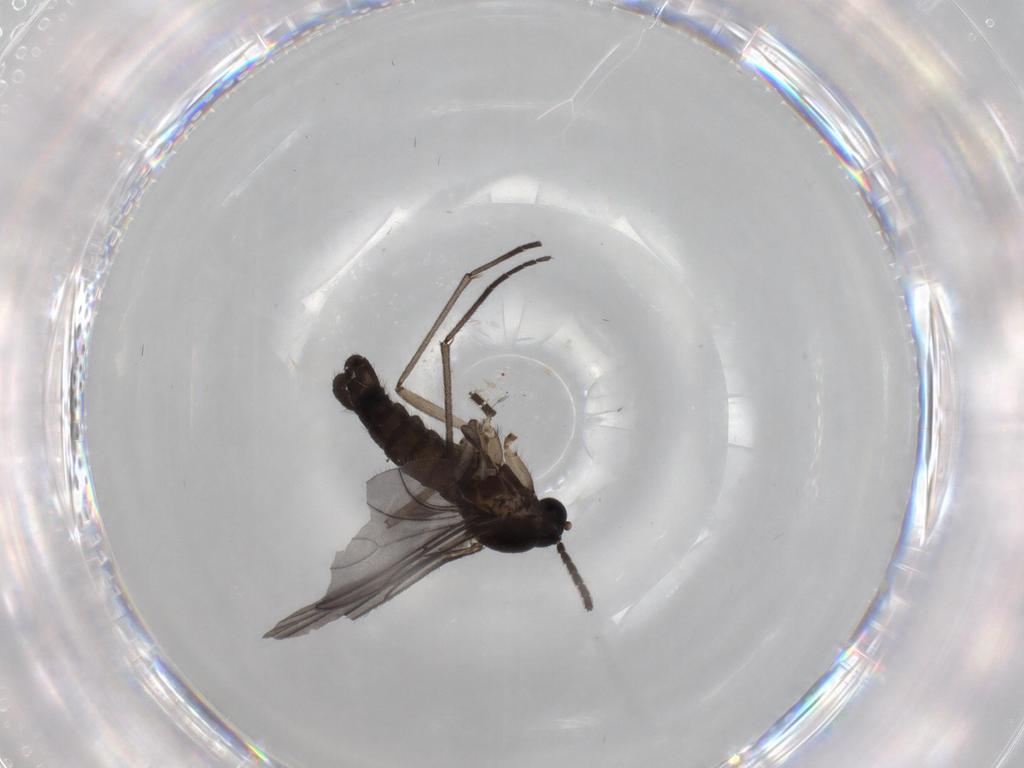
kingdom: Animalia
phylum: Arthropoda
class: Insecta
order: Diptera
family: Sciaridae
